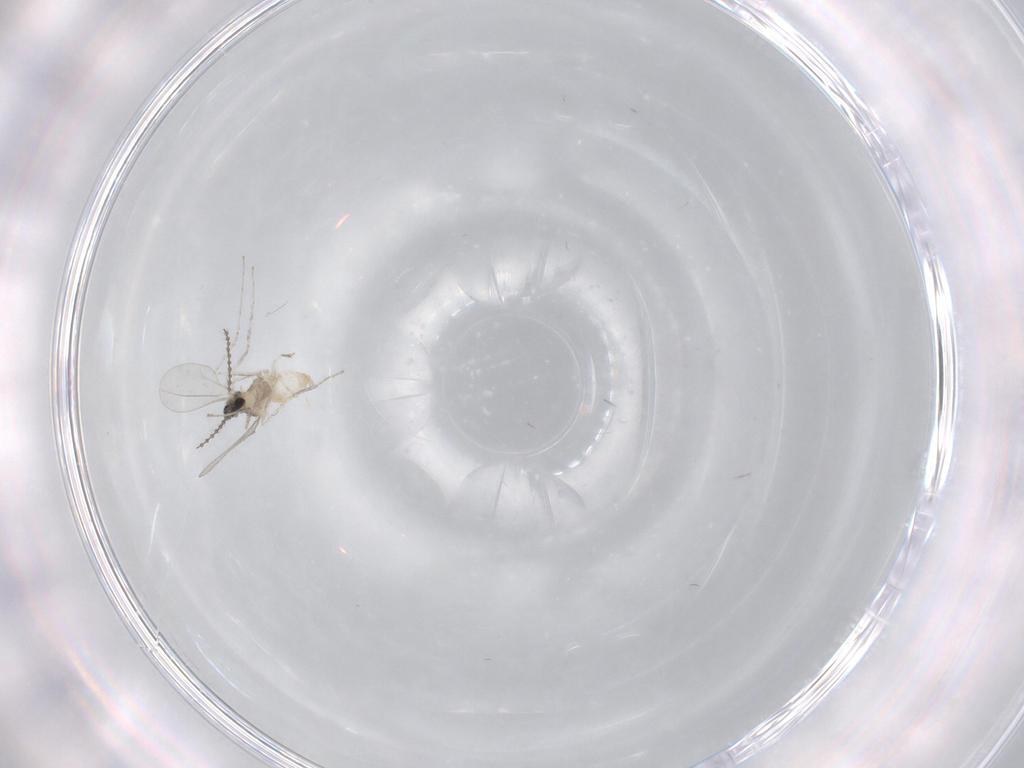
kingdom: Animalia
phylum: Arthropoda
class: Insecta
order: Diptera
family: Cecidomyiidae
